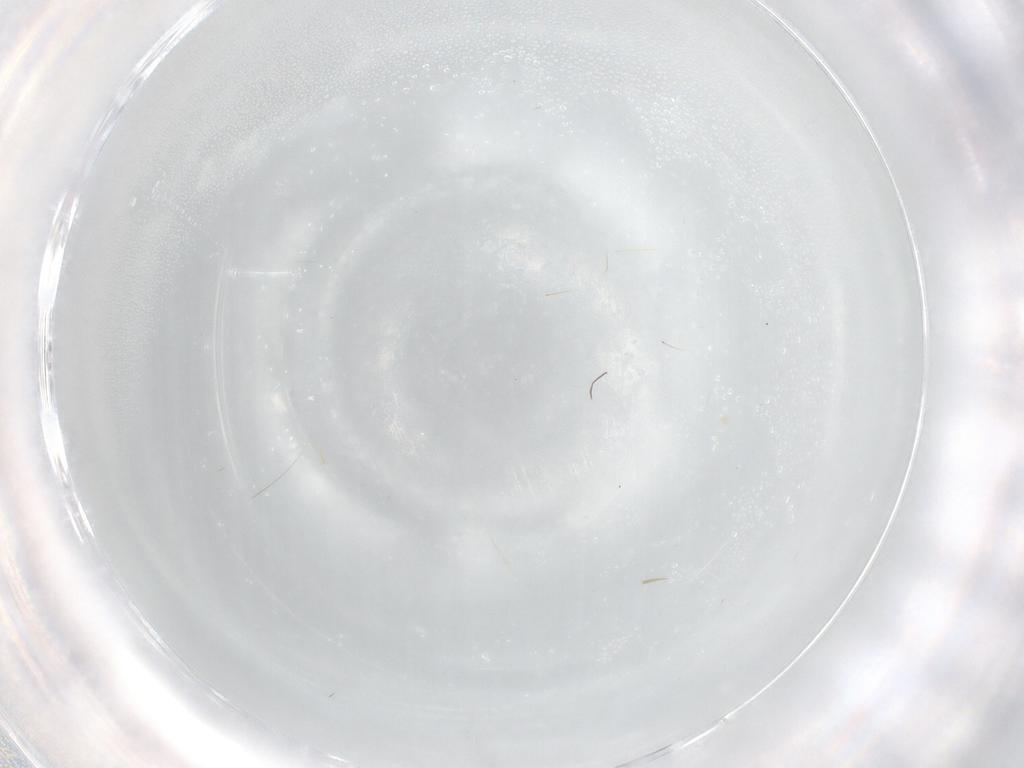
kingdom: Animalia
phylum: Arthropoda
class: Insecta
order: Diptera
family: Sciaridae
